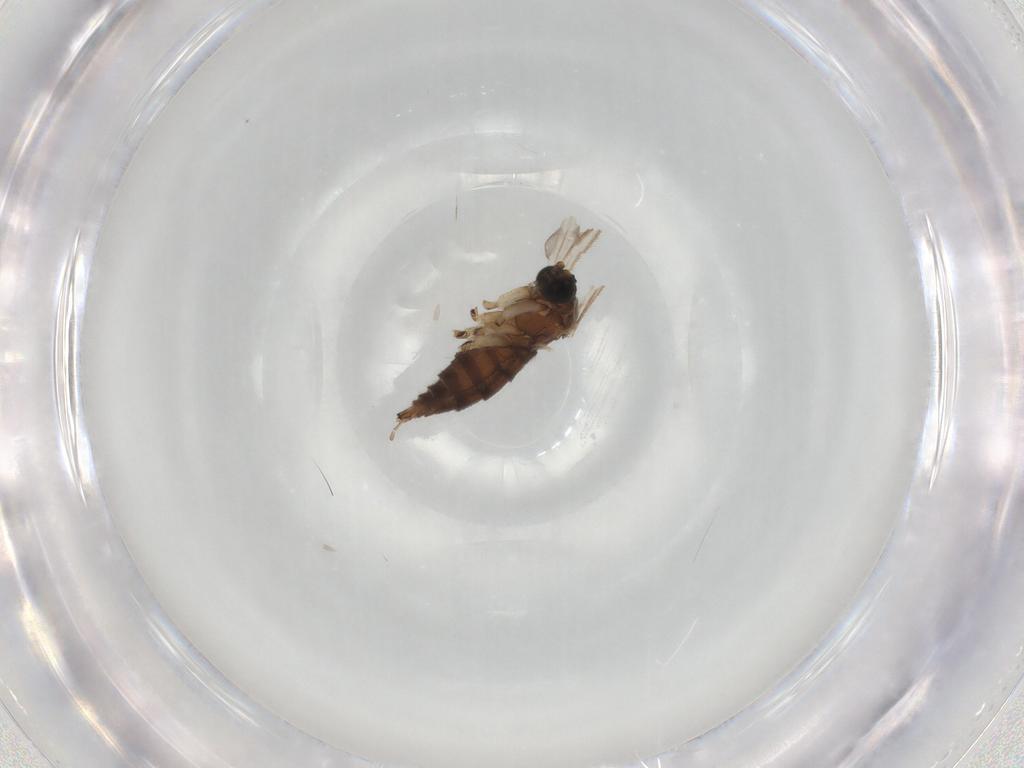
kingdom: Animalia
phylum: Arthropoda
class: Insecta
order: Diptera
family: Sciaridae
